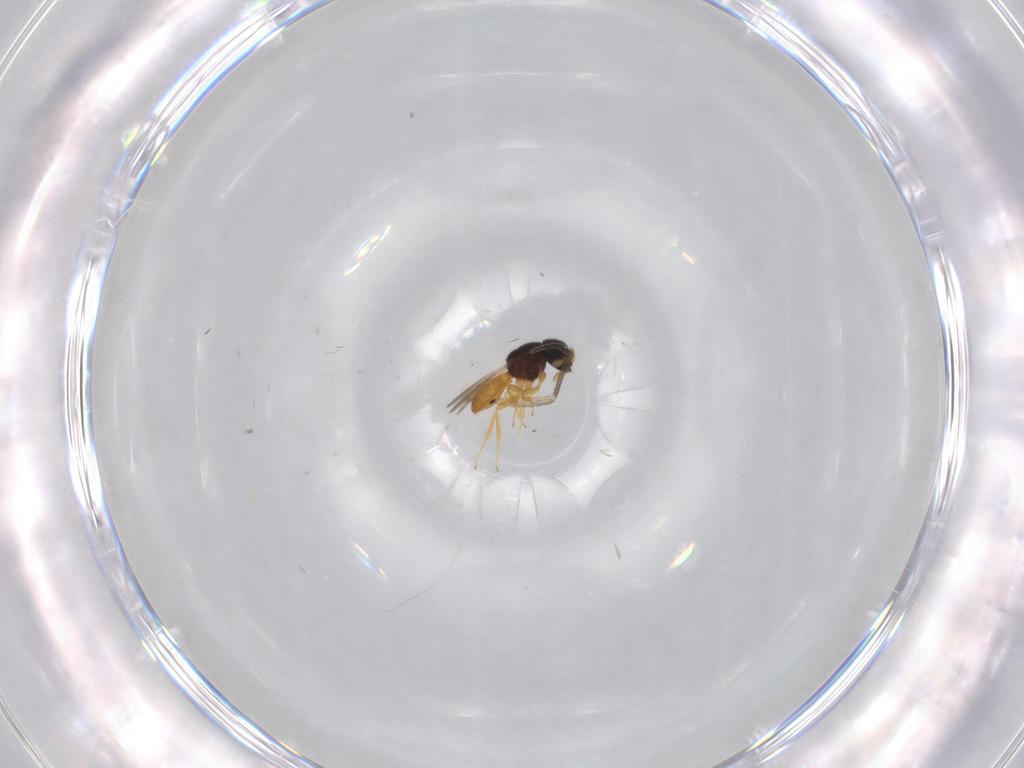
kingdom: Animalia
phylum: Arthropoda
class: Insecta
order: Hymenoptera
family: Scelionidae
